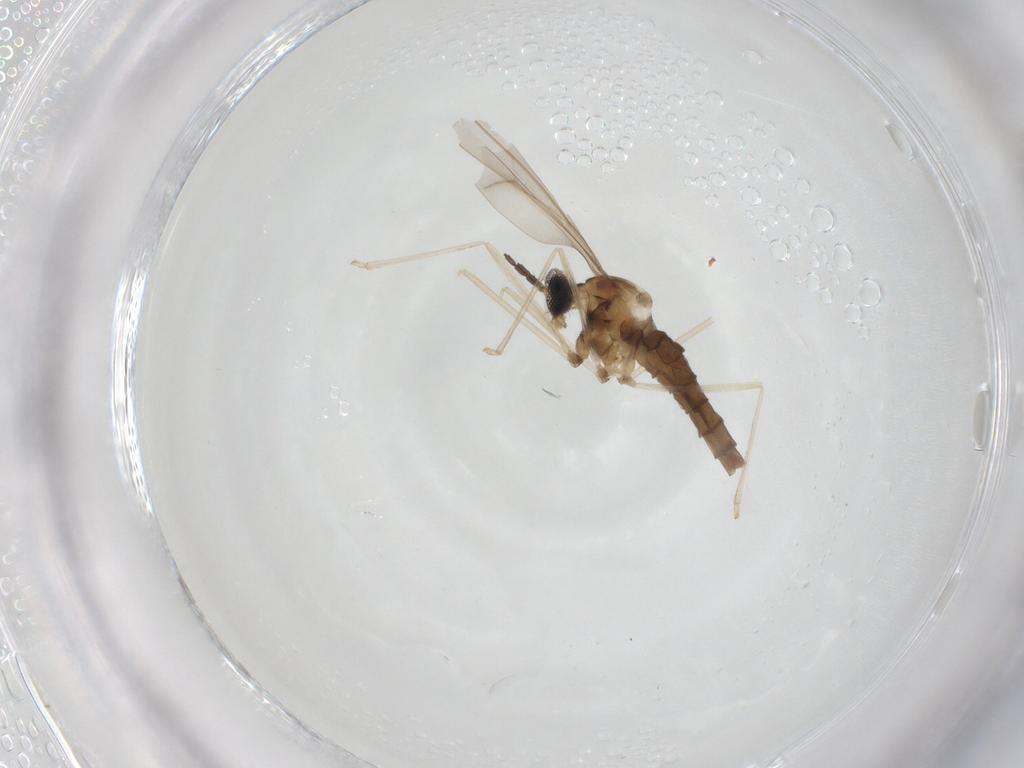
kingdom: Animalia
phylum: Arthropoda
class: Insecta
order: Diptera
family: Cecidomyiidae
